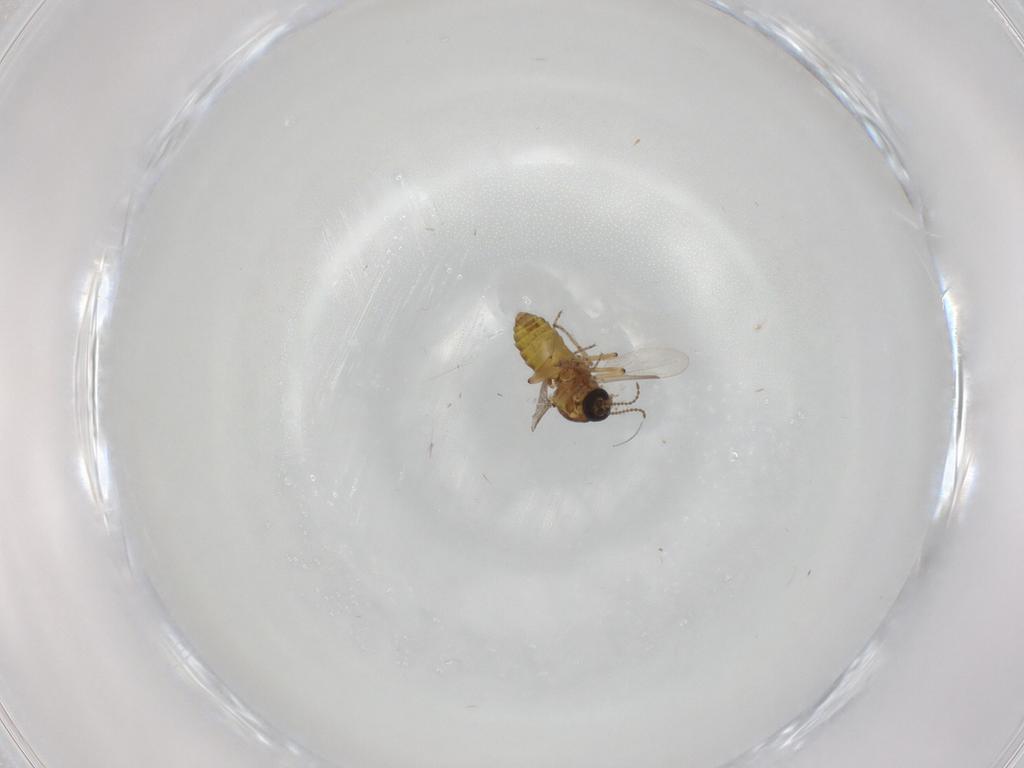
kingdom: Animalia
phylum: Arthropoda
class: Insecta
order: Diptera
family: Ceratopogonidae
